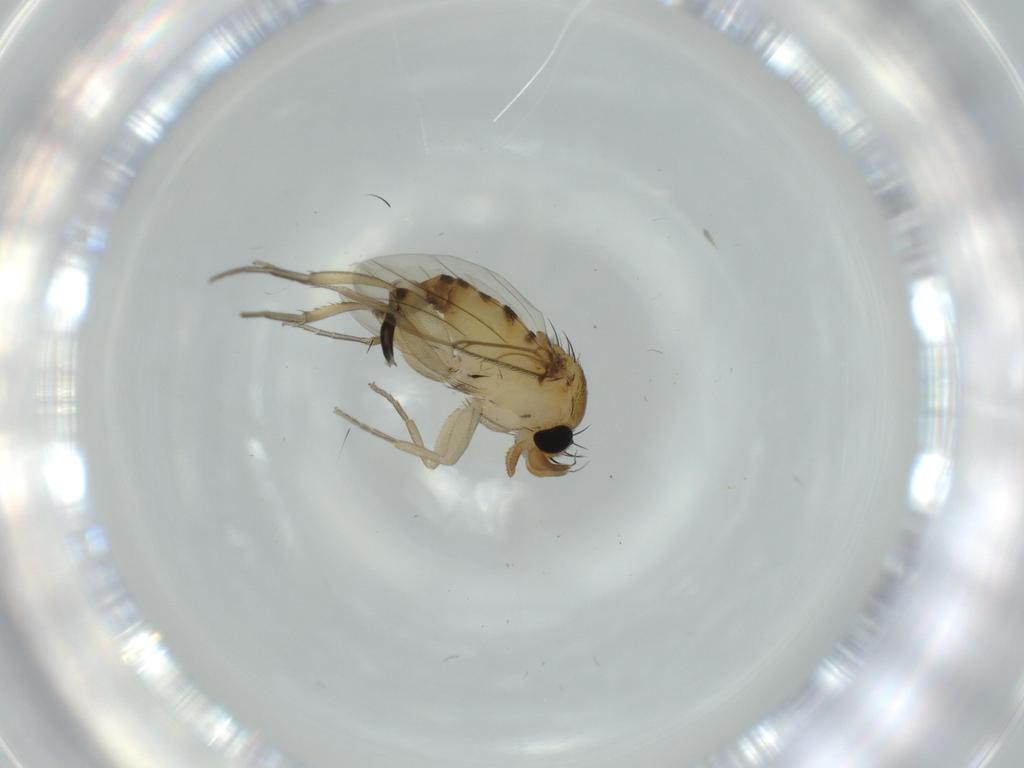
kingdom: Animalia
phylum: Arthropoda
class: Insecta
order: Diptera
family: Phoridae
